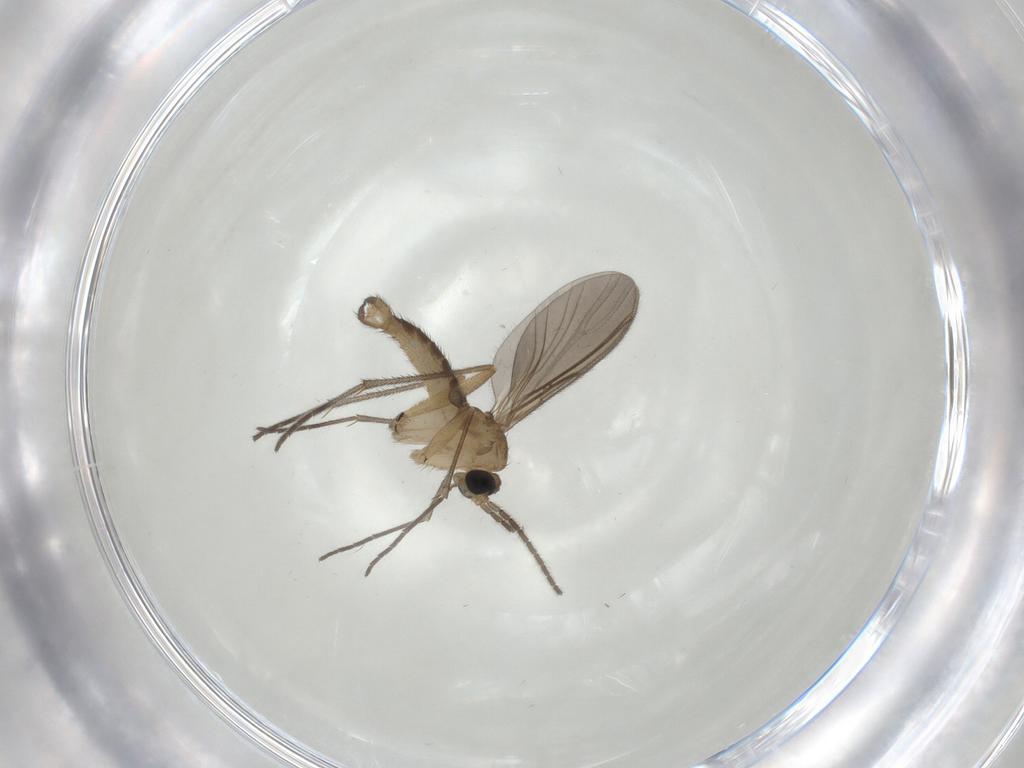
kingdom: Animalia
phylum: Arthropoda
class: Insecta
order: Diptera
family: Sciaridae
